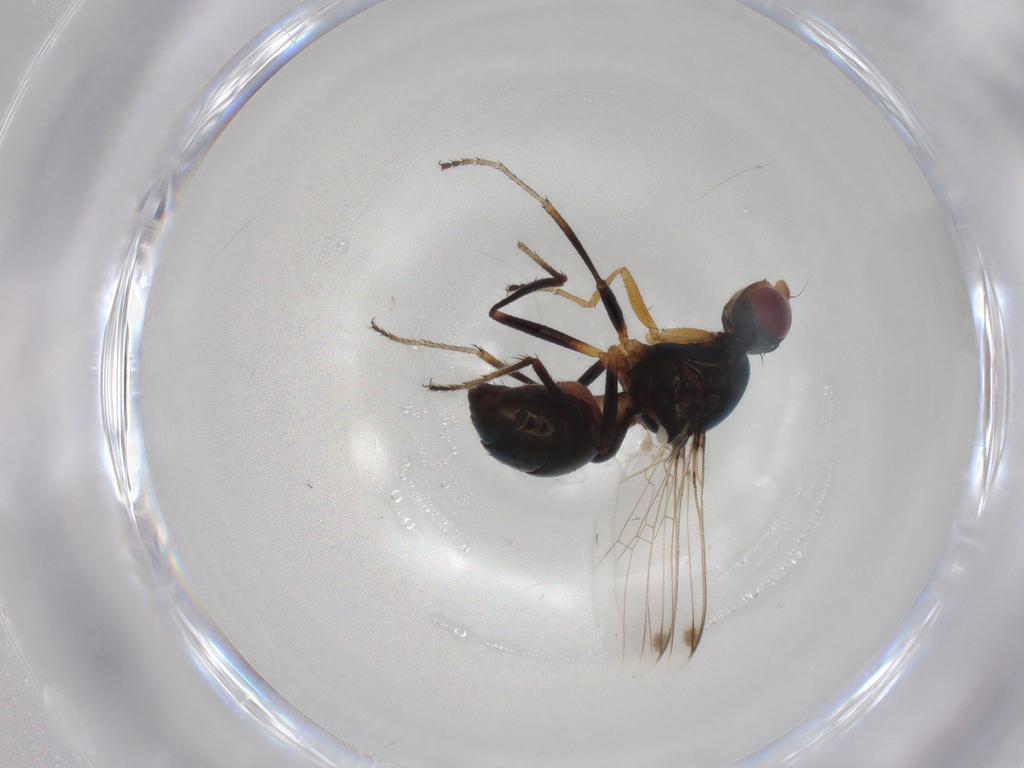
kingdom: Animalia
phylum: Arthropoda
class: Insecta
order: Diptera
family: Sepsidae
